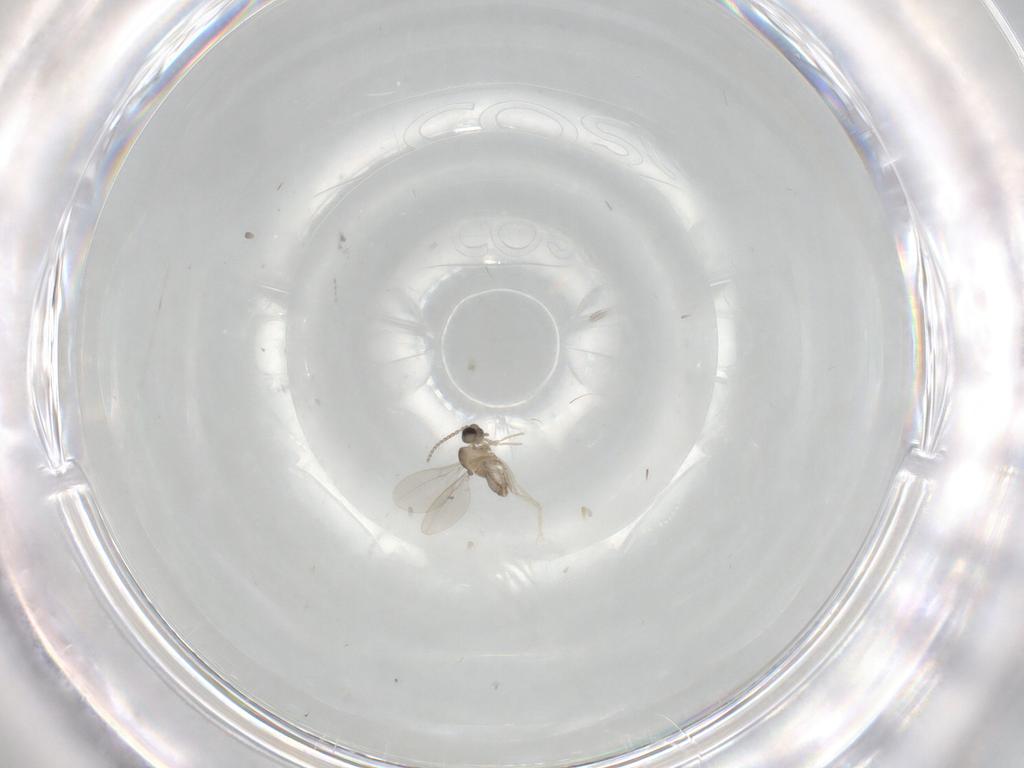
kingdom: Animalia
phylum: Arthropoda
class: Insecta
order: Diptera
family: Cecidomyiidae
